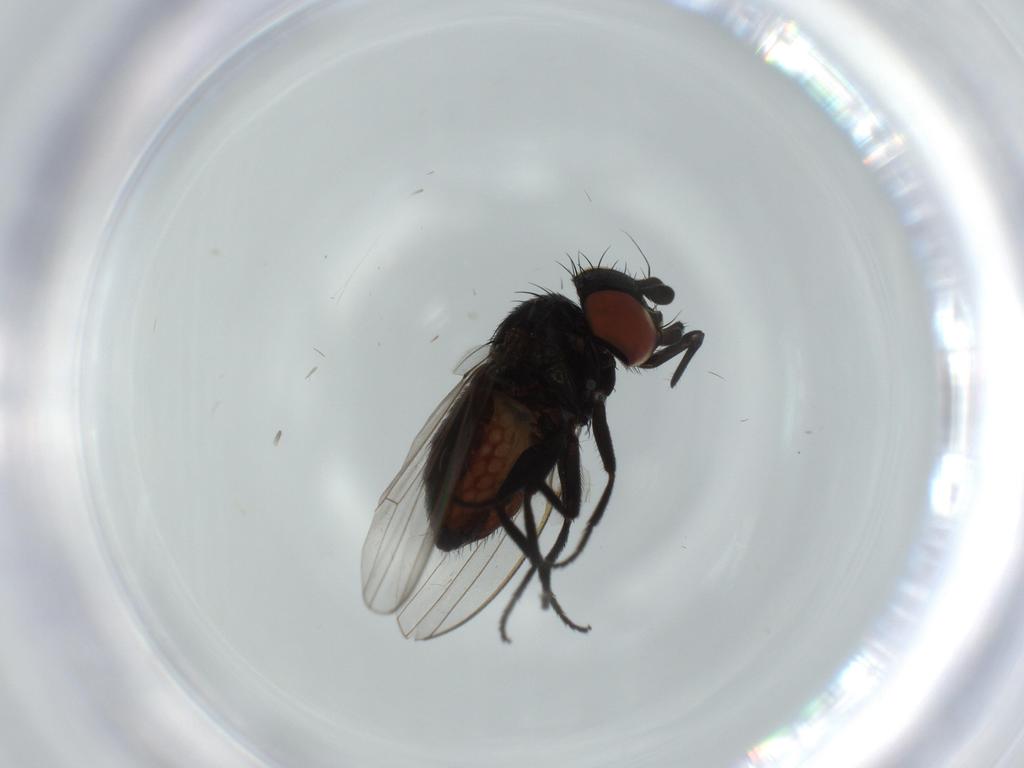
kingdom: Animalia
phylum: Arthropoda
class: Insecta
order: Diptera
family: Milichiidae
